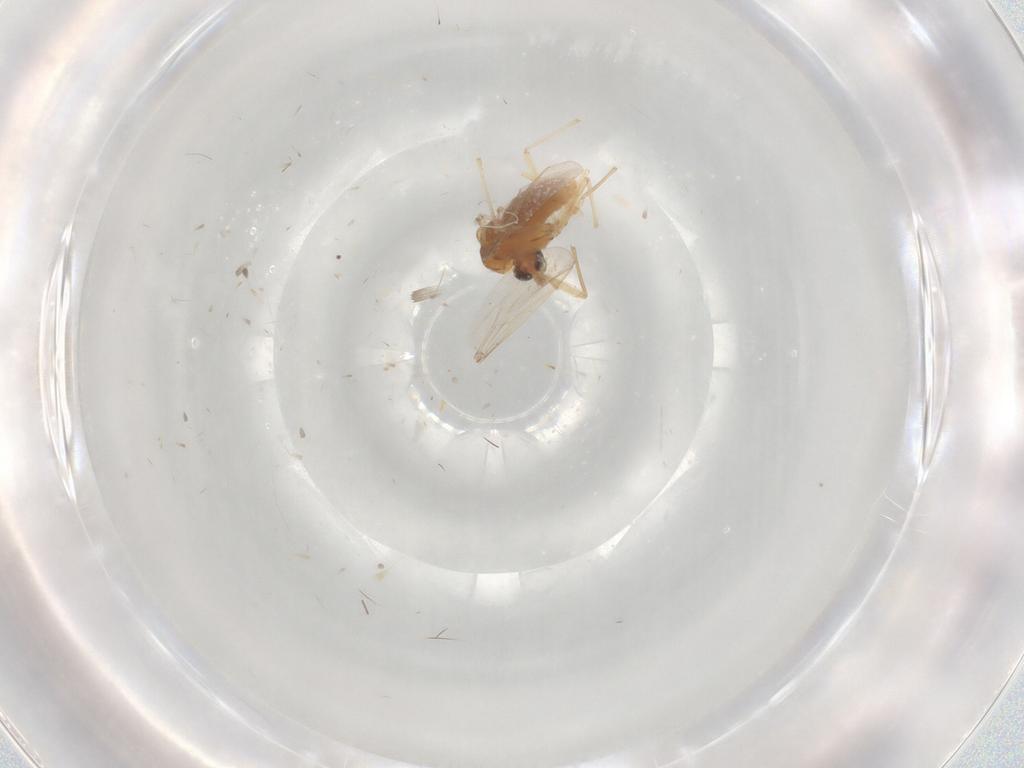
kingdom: Animalia
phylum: Arthropoda
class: Insecta
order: Diptera
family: Chironomidae
